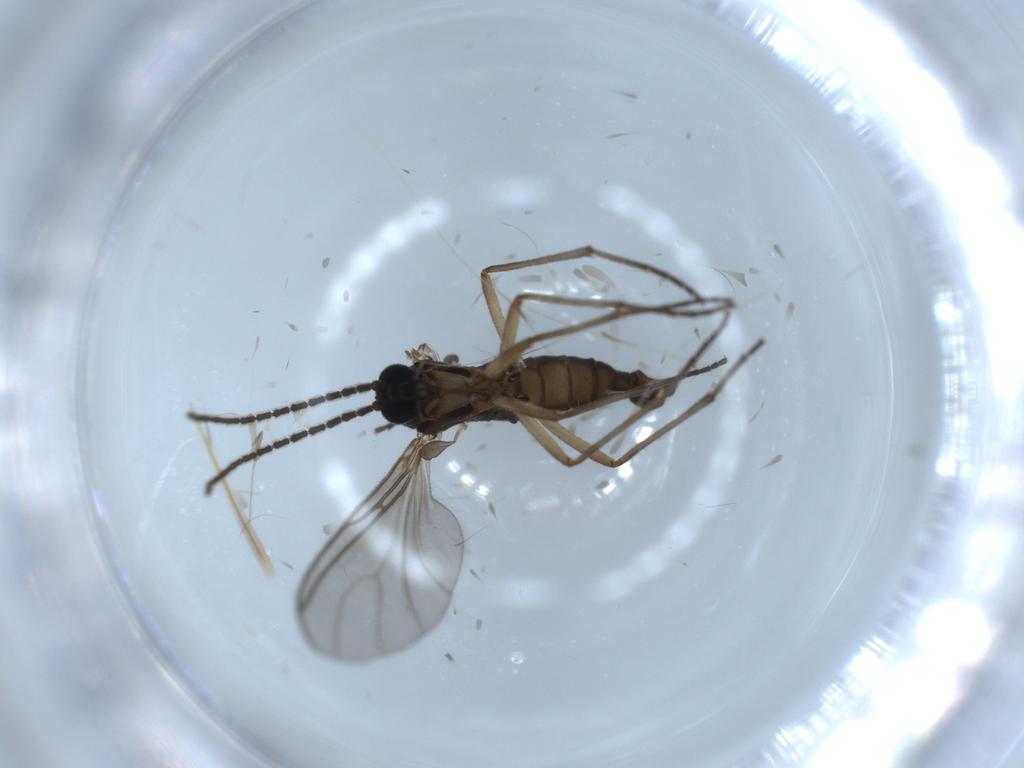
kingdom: Animalia
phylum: Arthropoda
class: Insecta
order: Diptera
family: Sciaridae
